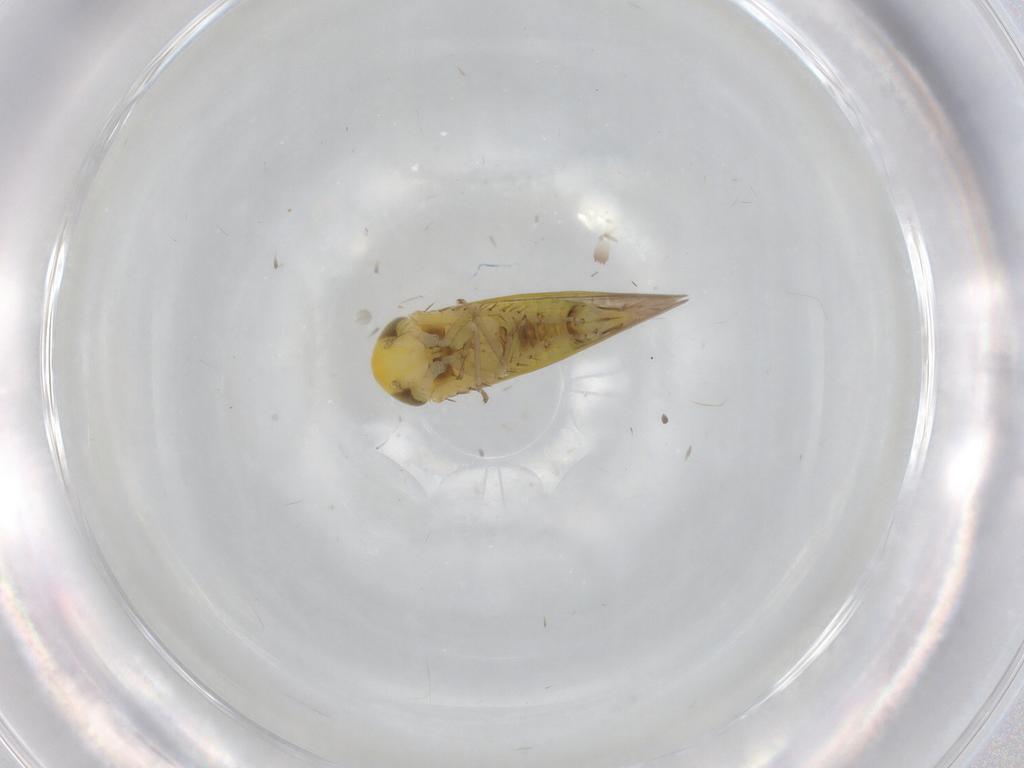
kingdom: Animalia
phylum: Arthropoda
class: Insecta
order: Hemiptera
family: Cicadellidae
